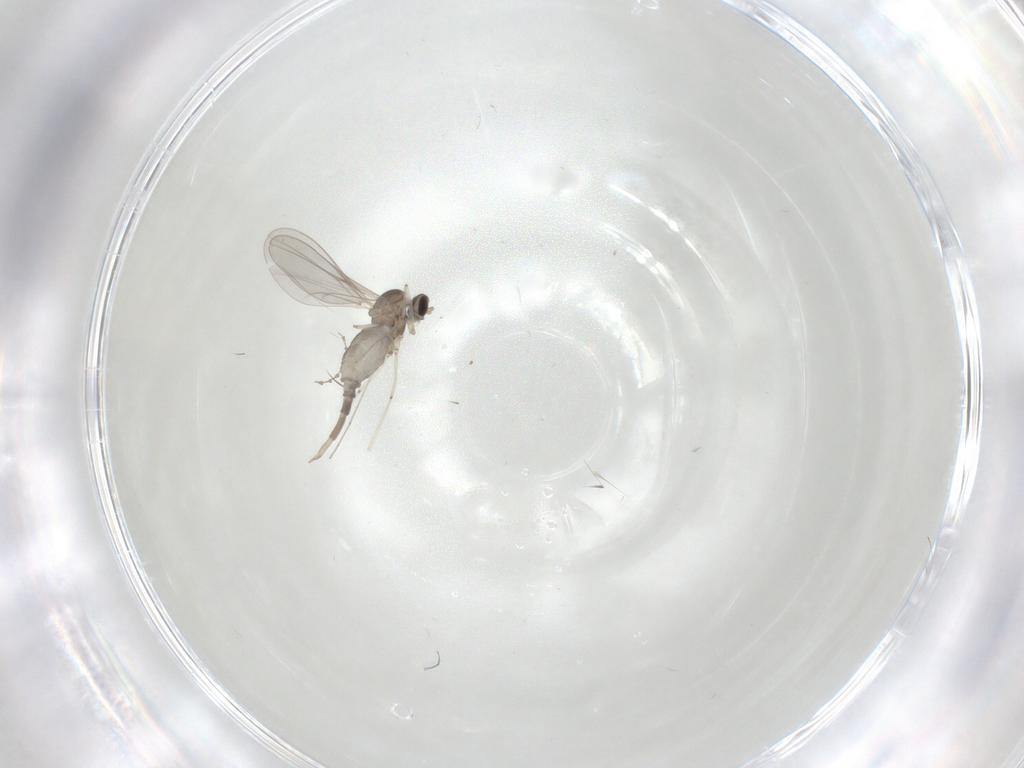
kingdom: Animalia
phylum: Arthropoda
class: Insecta
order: Diptera
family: Cecidomyiidae
